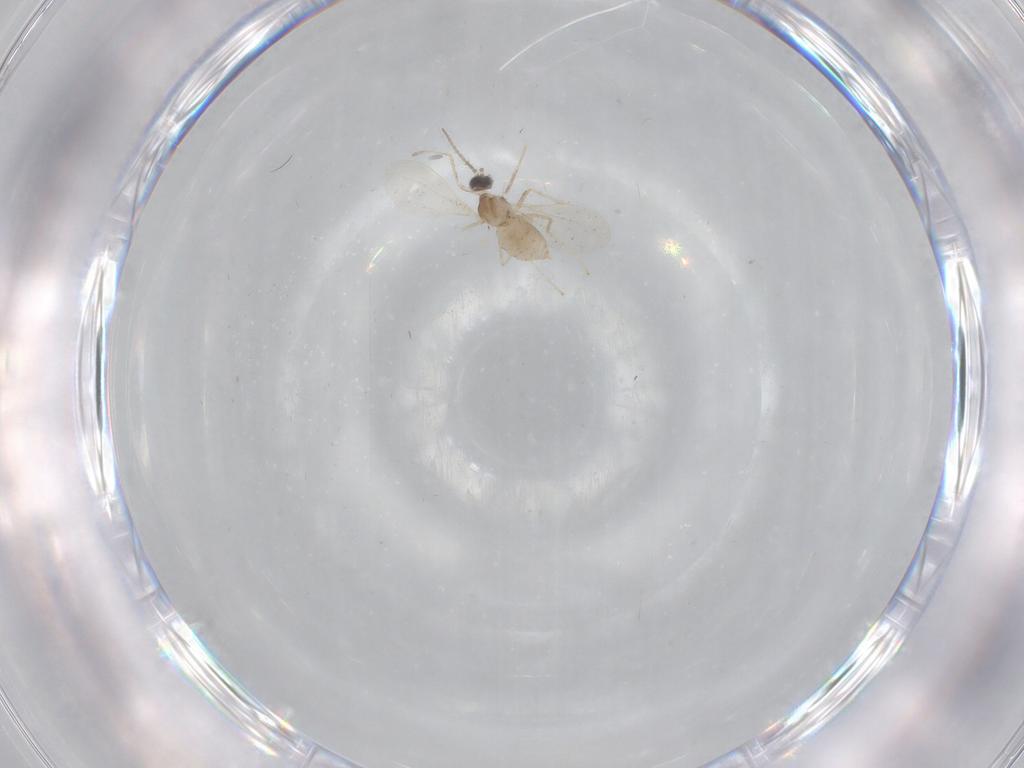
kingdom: Animalia
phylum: Arthropoda
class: Insecta
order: Diptera
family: Cecidomyiidae
